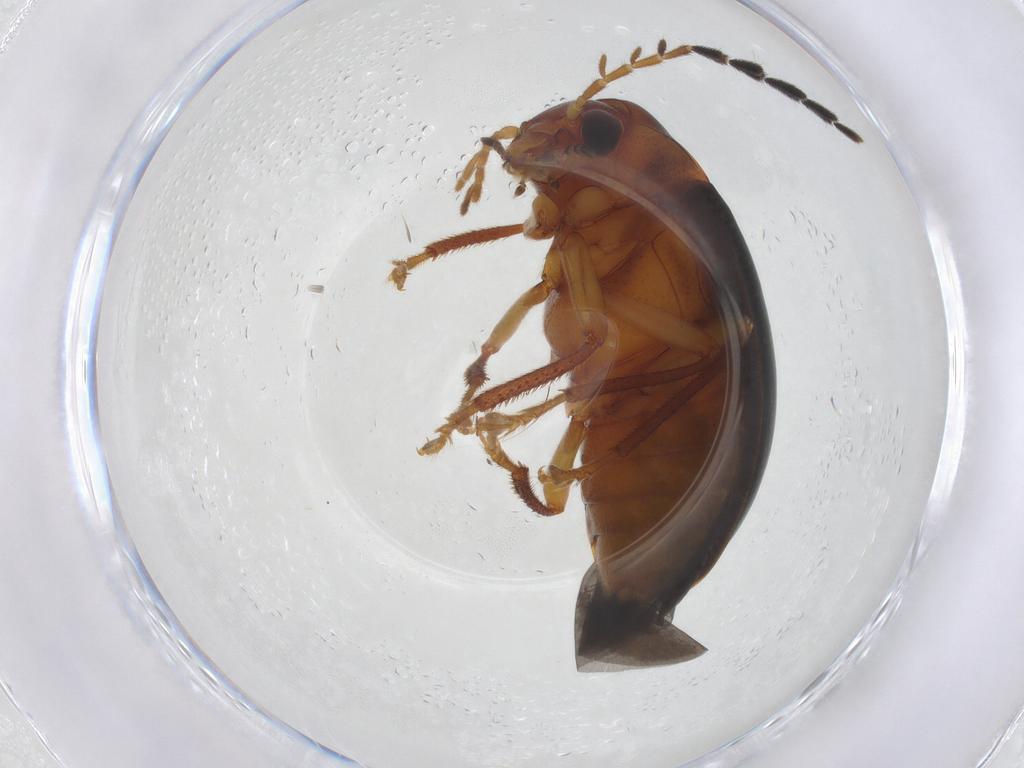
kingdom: Animalia
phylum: Arthropoda
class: Insecta
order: Coleoptera
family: Ptilodactylidae
